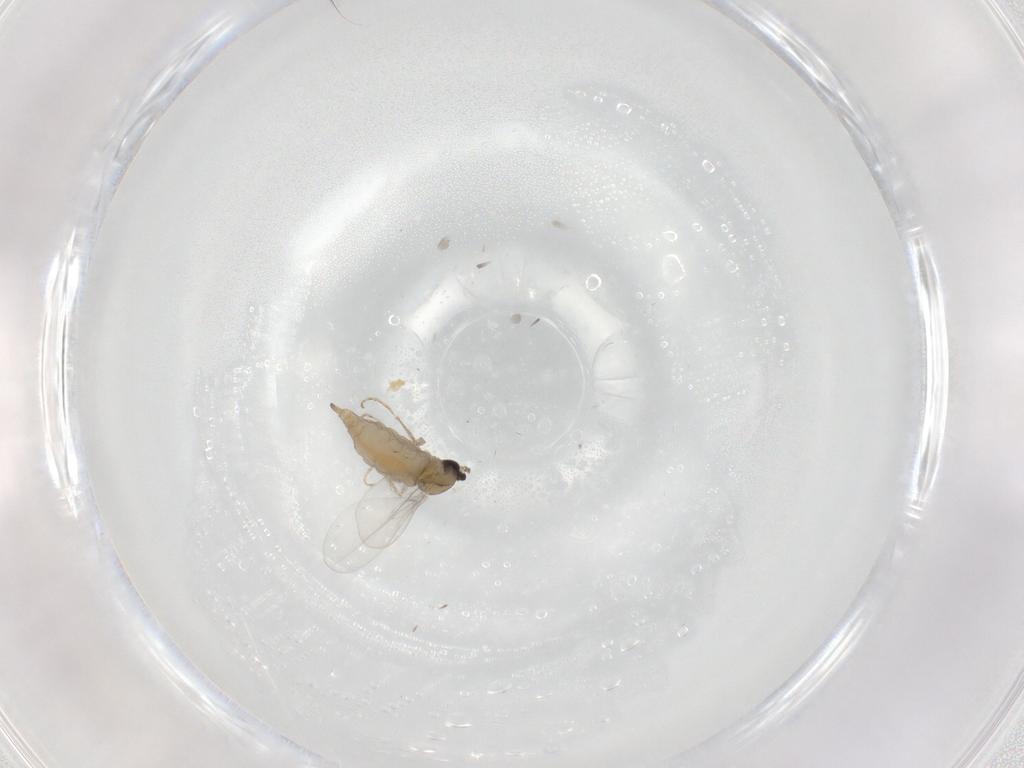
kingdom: Animalia
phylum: Arthropoda
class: Insecta
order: Diptera
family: Cecidomyiidae
